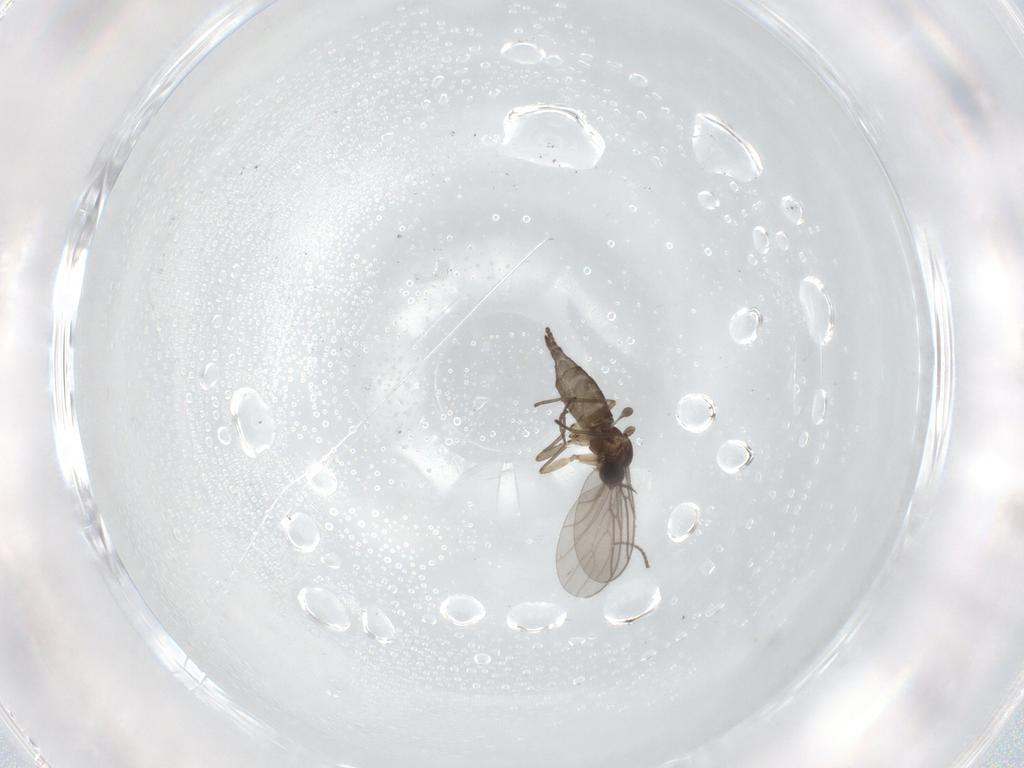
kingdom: Animalia
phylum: Arthropoda
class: Insecta
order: Diptera
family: Sciaridae
